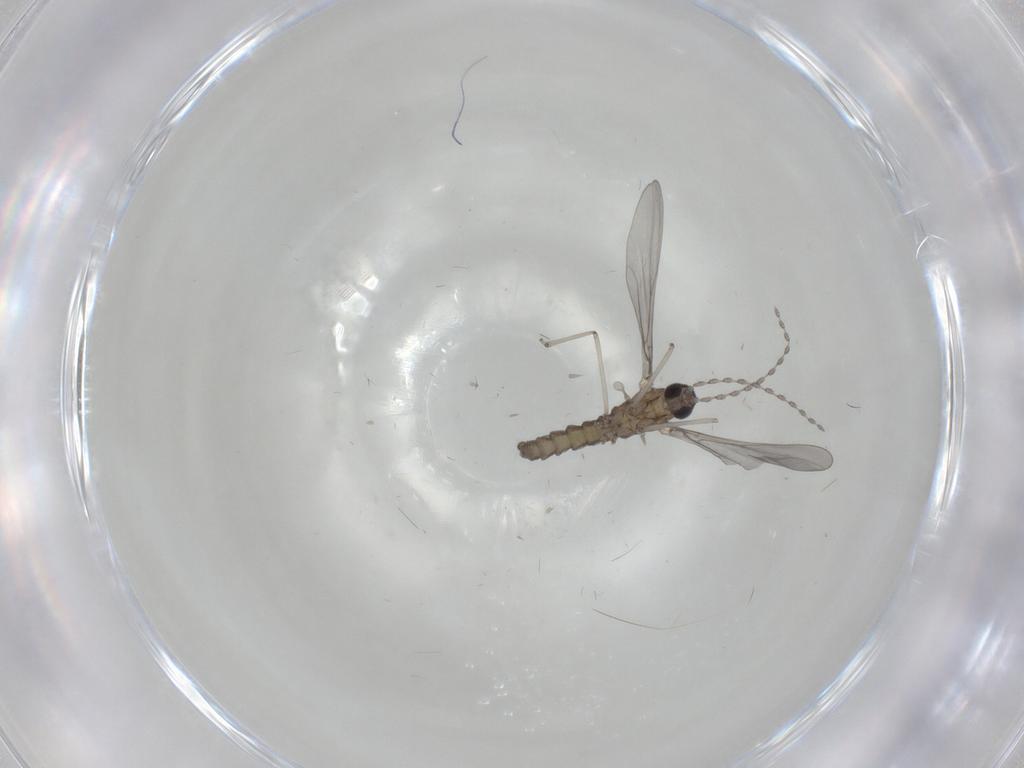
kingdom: Animalia
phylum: Arthropoda
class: Insecta
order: Diptera
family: Cecidomyiidae
